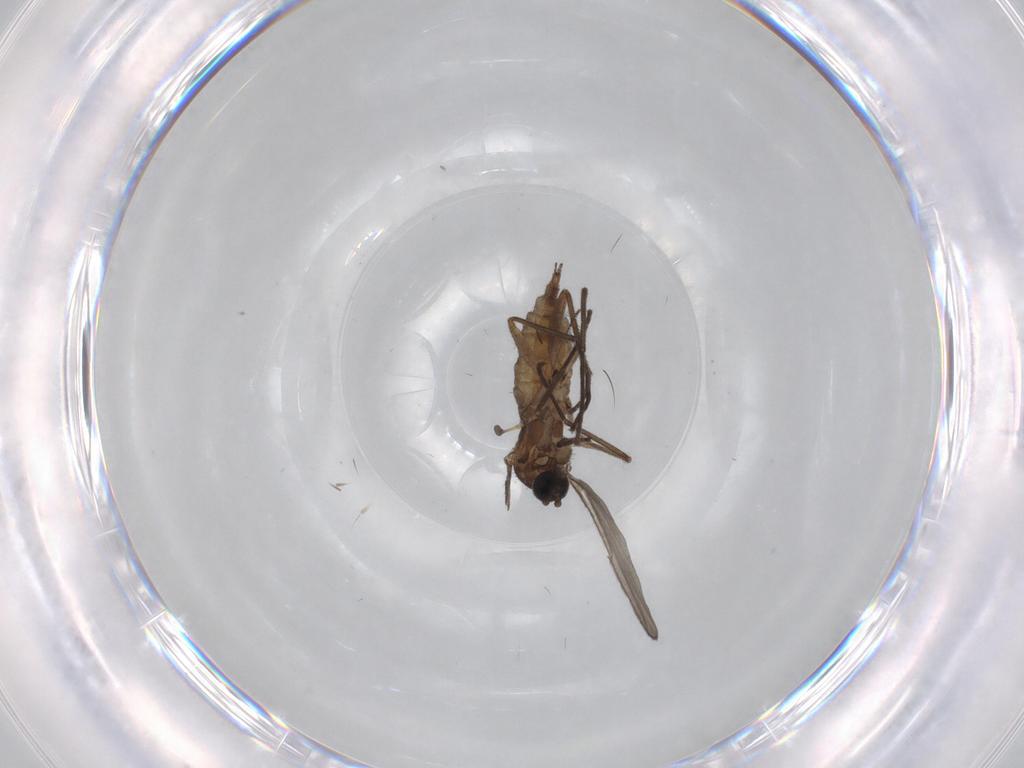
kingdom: Animalia
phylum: Arthropoda
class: Insecta
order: Diptera
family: Sciaridae
